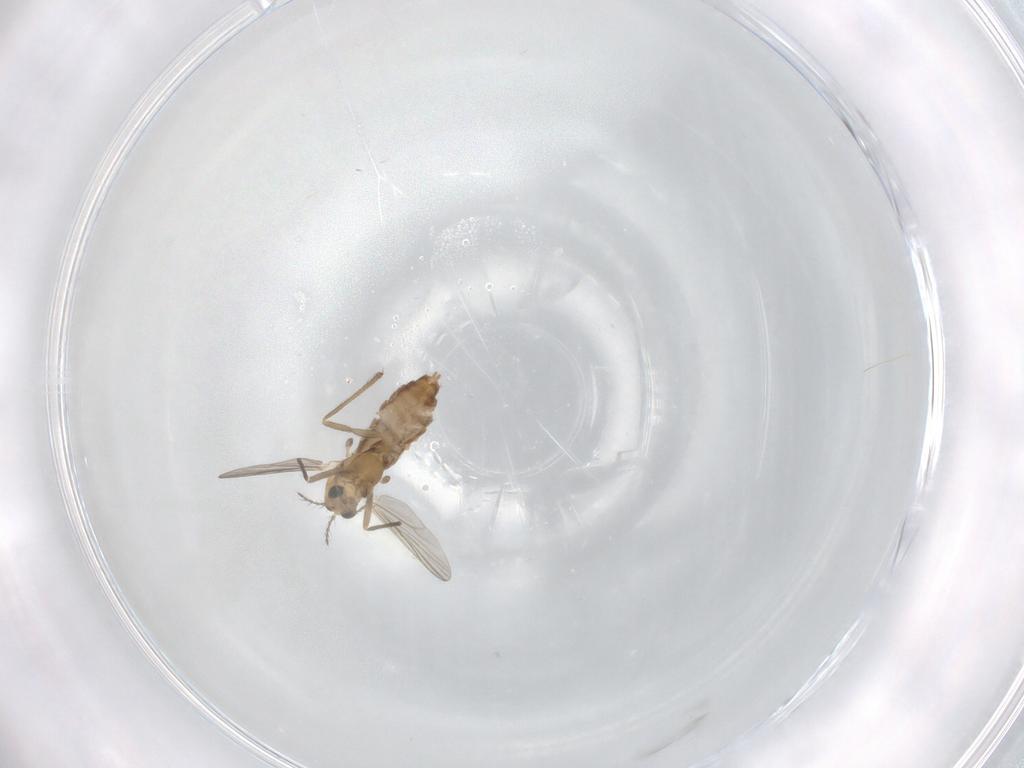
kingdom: Animalia
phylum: Arthropoda
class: Insecta
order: Diptera
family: Chironomidae
